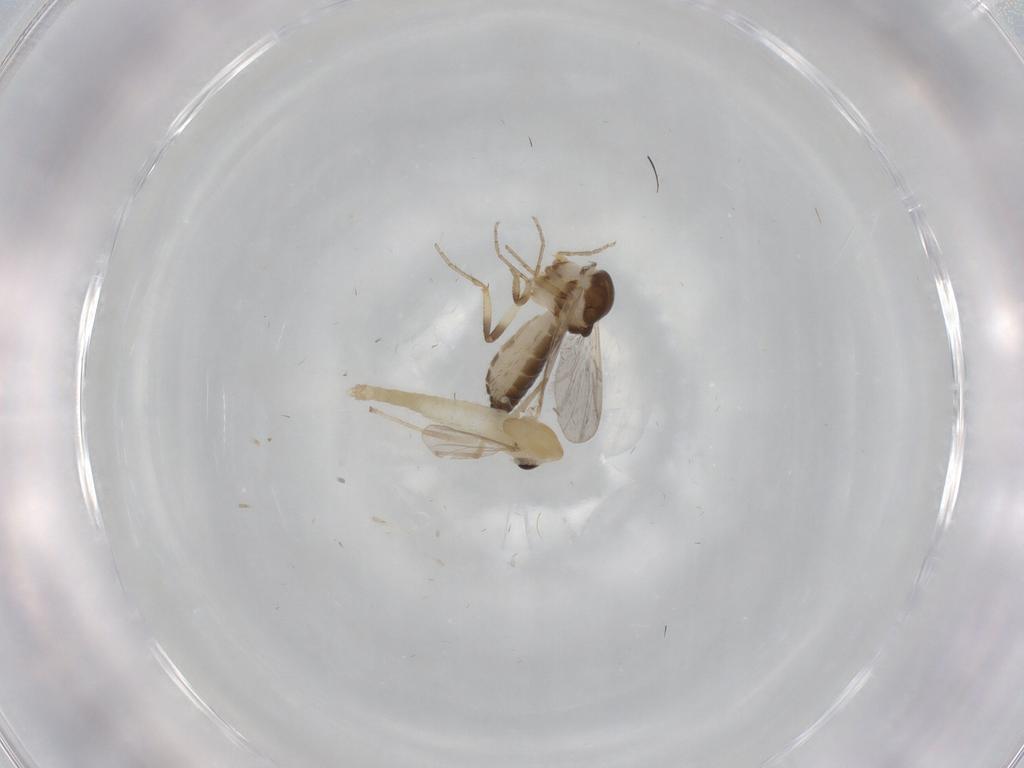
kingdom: Animalia
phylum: Arthropoda
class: Insecta
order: Diptera
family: Ceratopogonidae
